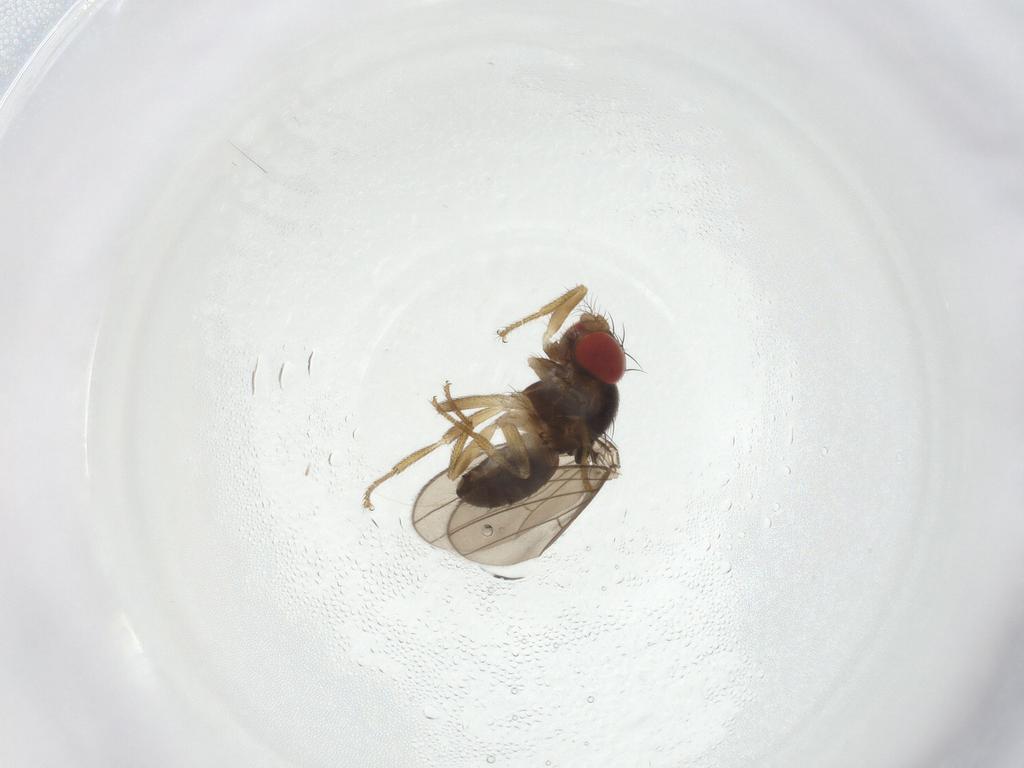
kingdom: Animalia
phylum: Arthropoda
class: Insecta
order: Diptera
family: Drosophilidae
